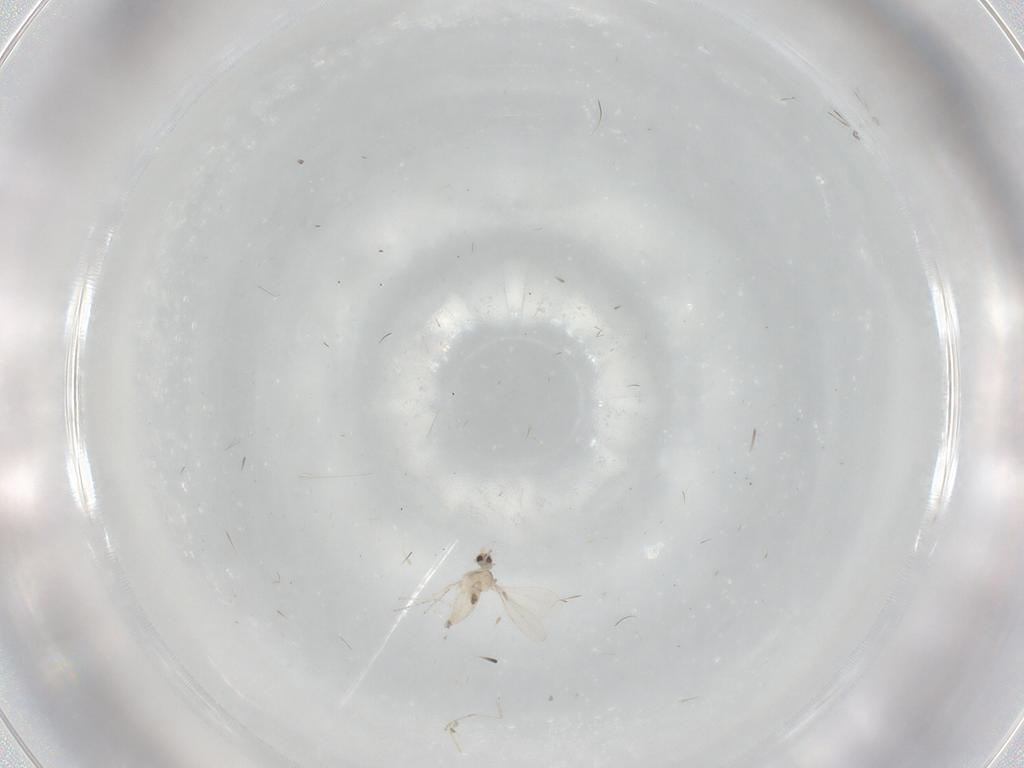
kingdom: Animalia
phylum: Arthropoda
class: Insecta
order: Diptera
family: Cecidomyiidae
